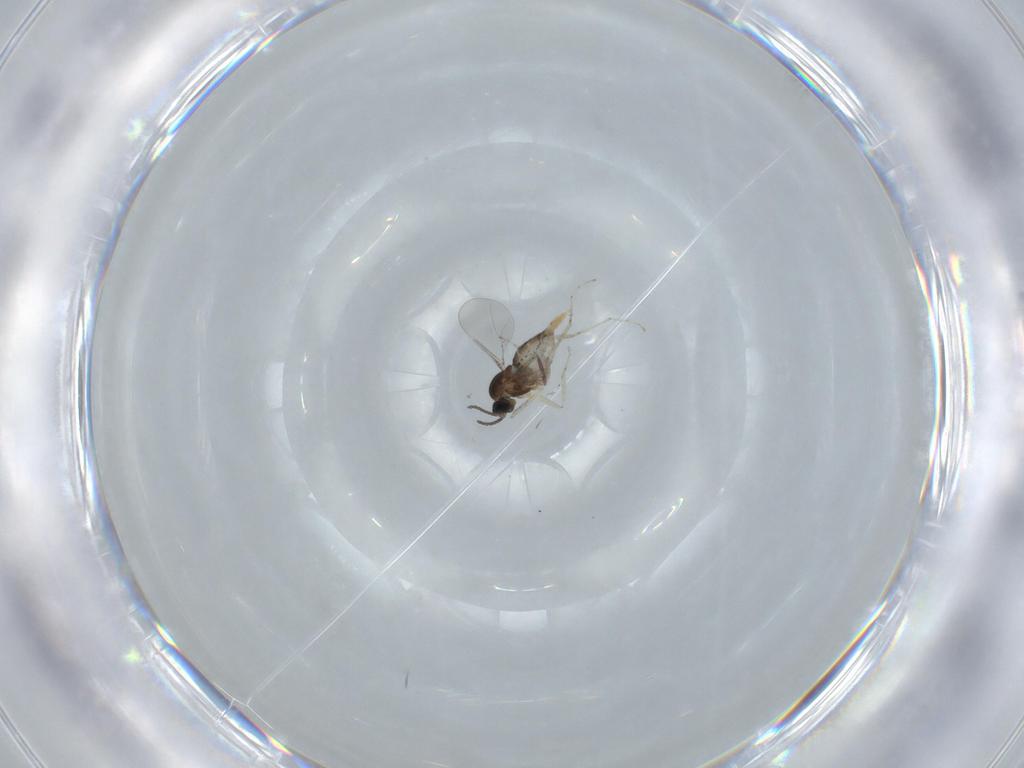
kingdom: Animalia
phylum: Arthropoda
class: Insecta
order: Diptera
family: Cecidomyiidae
